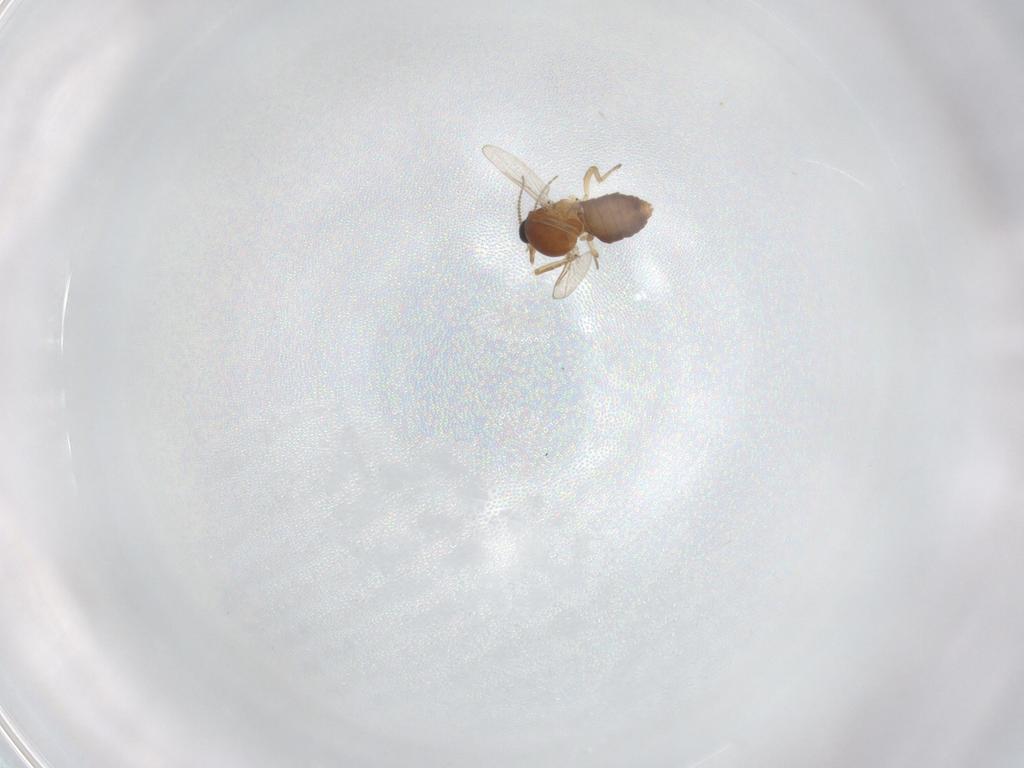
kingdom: Animalia
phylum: Arthropoda
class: Insecta
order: Diptera
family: Ceratopogonidae
